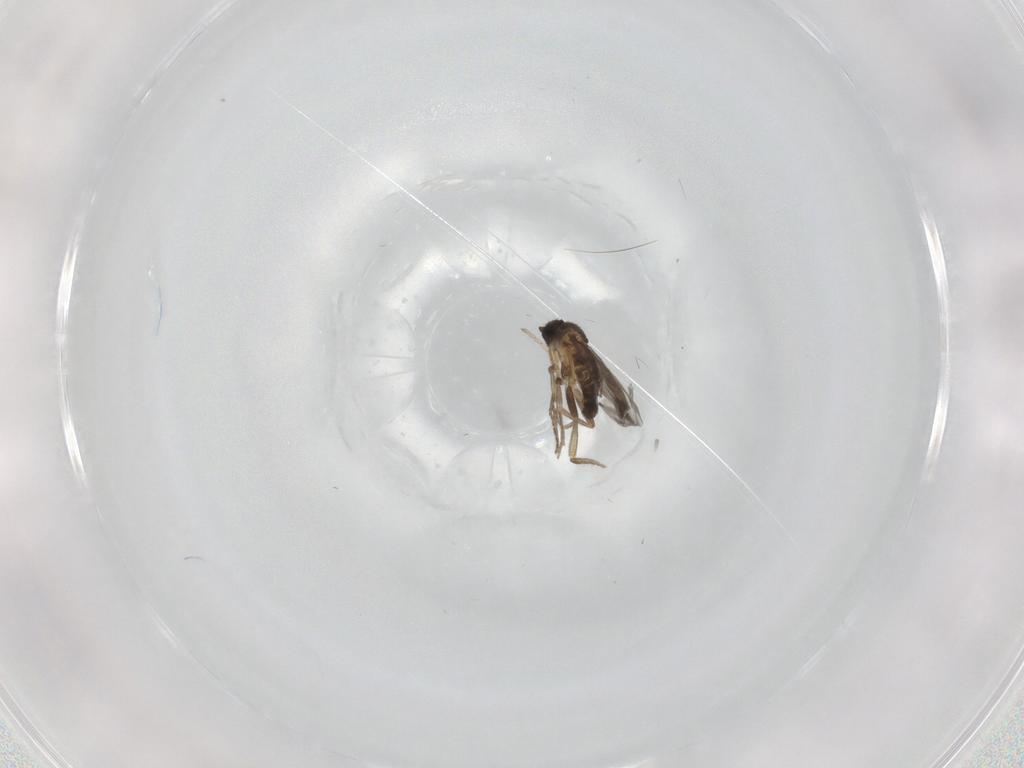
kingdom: Animalia
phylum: Arthropoda
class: Insecta
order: Diptera
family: Cecidomyiidae
